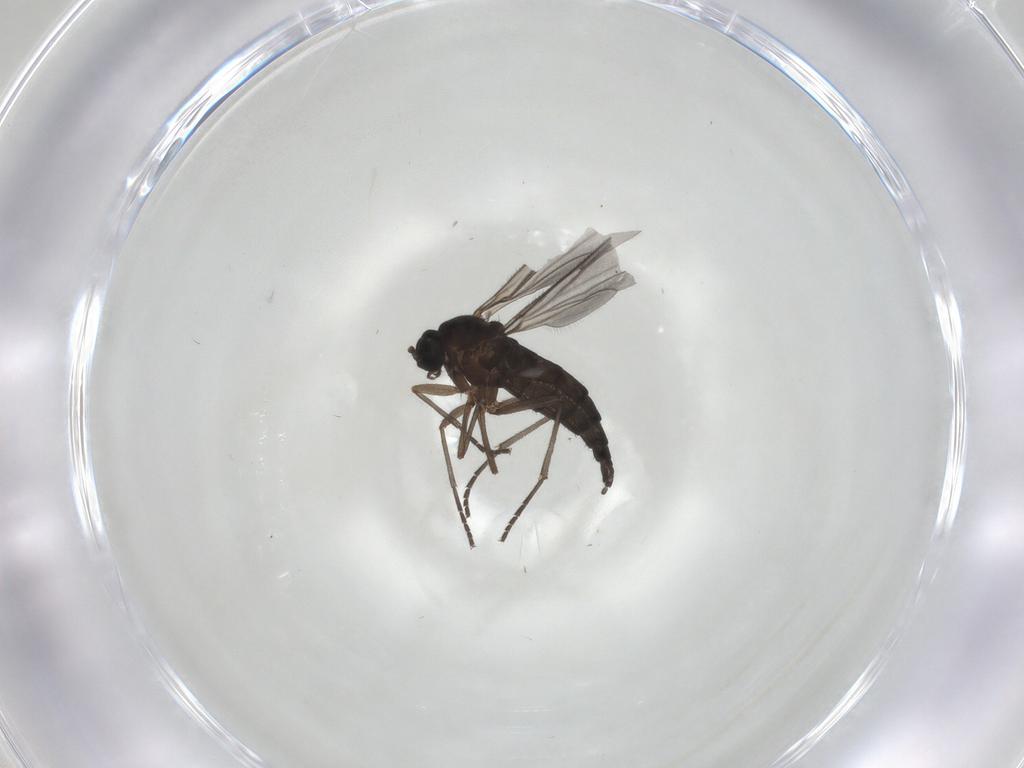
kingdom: Animalia
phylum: Arthropoda
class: Insecta
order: Diptera
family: Sciaridae
